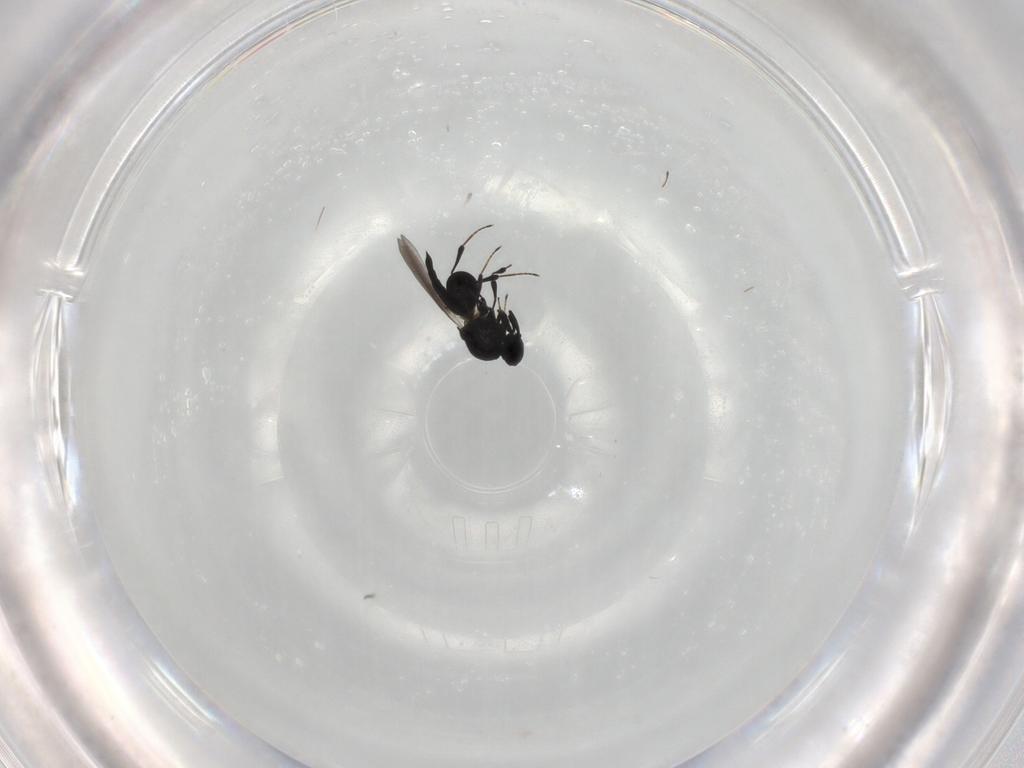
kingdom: Animalia
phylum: Arthropoda
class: Insecta
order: Hymenoptera
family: Platygastridae
